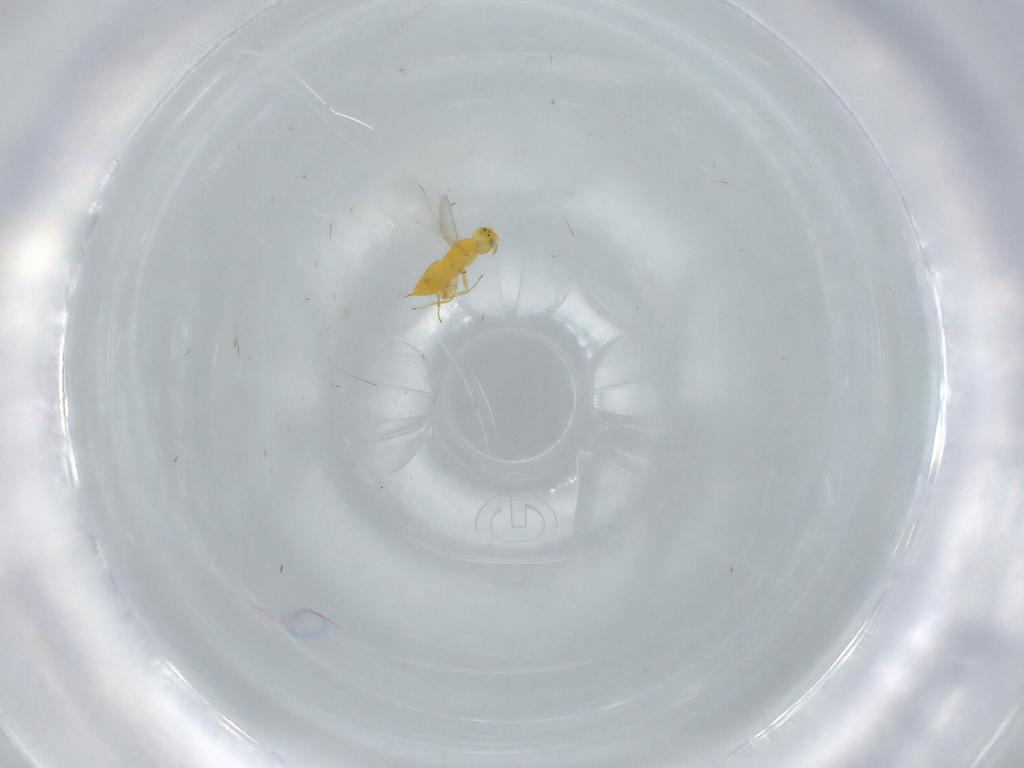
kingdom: Animalia
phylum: Arthropoda
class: Insecta
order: Hymenoptera
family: Aphelinidae
